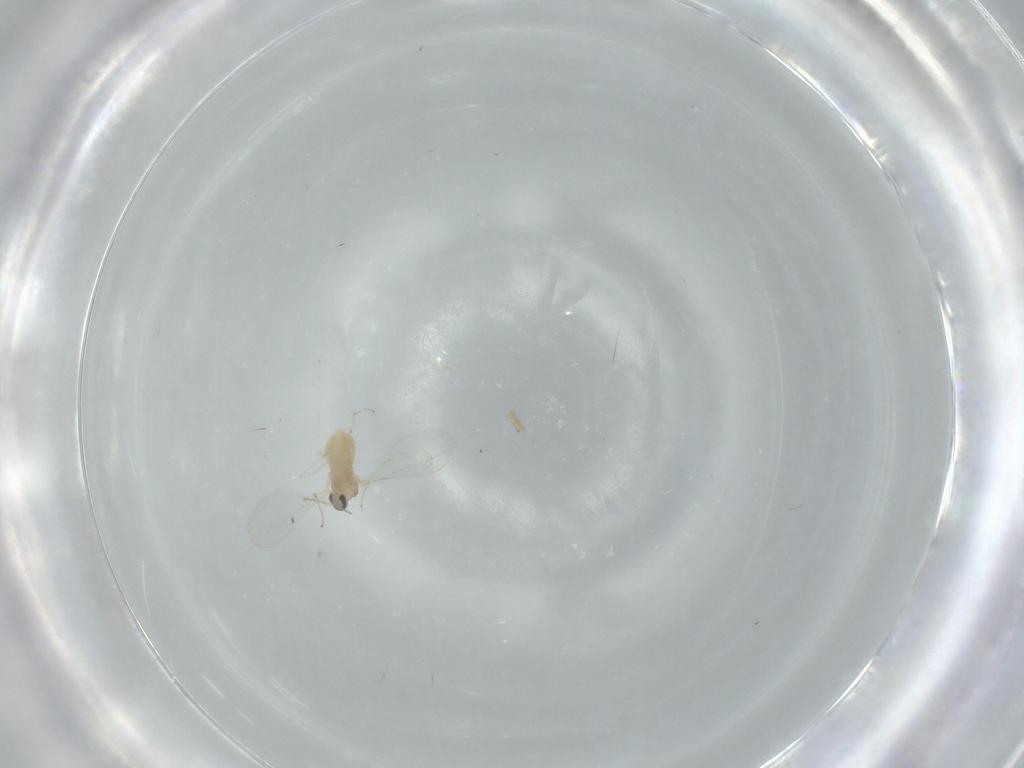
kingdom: Animalia
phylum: Arthropoda
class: Insecta
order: Diptera
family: Sphaeroceridae
